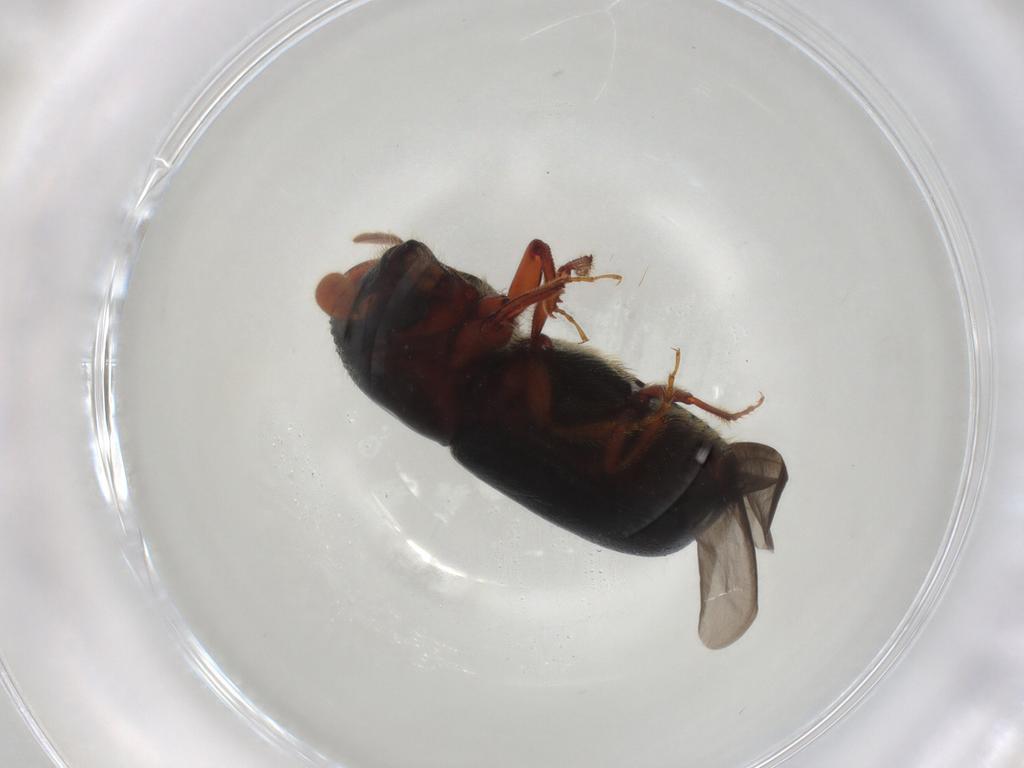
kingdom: Animalia
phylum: Arthropoda
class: Insecta
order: Coleoptera
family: Curculionidae
